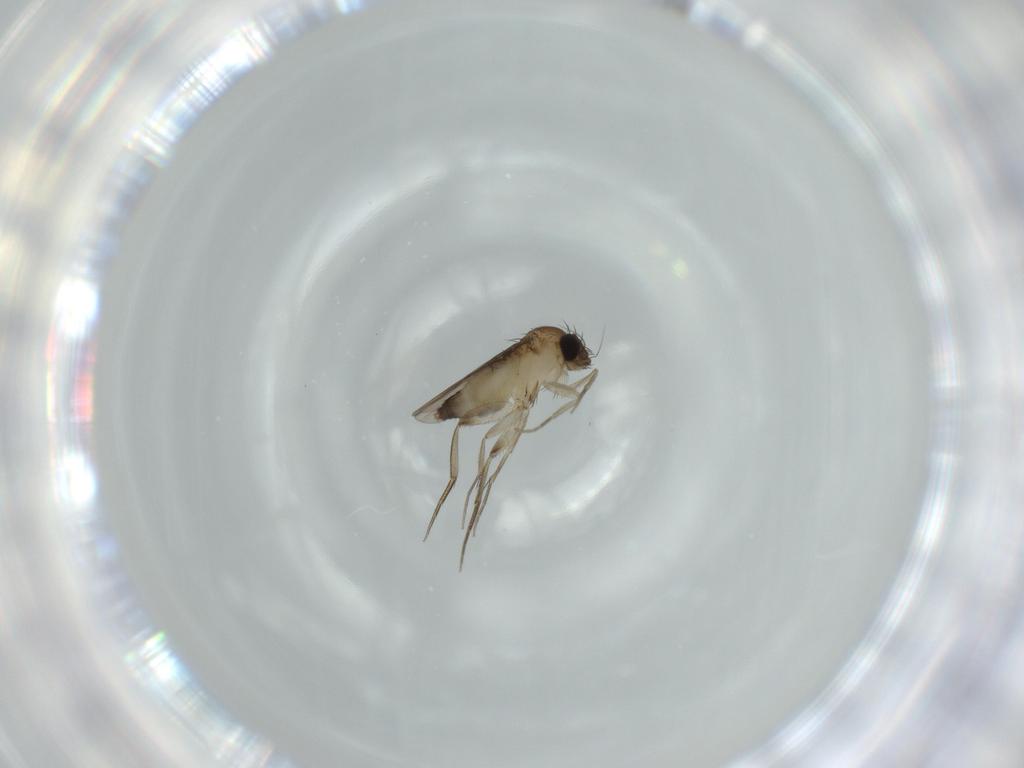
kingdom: Animalia
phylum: Arthropoda
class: Insecta
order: Diptera
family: Phoridae
